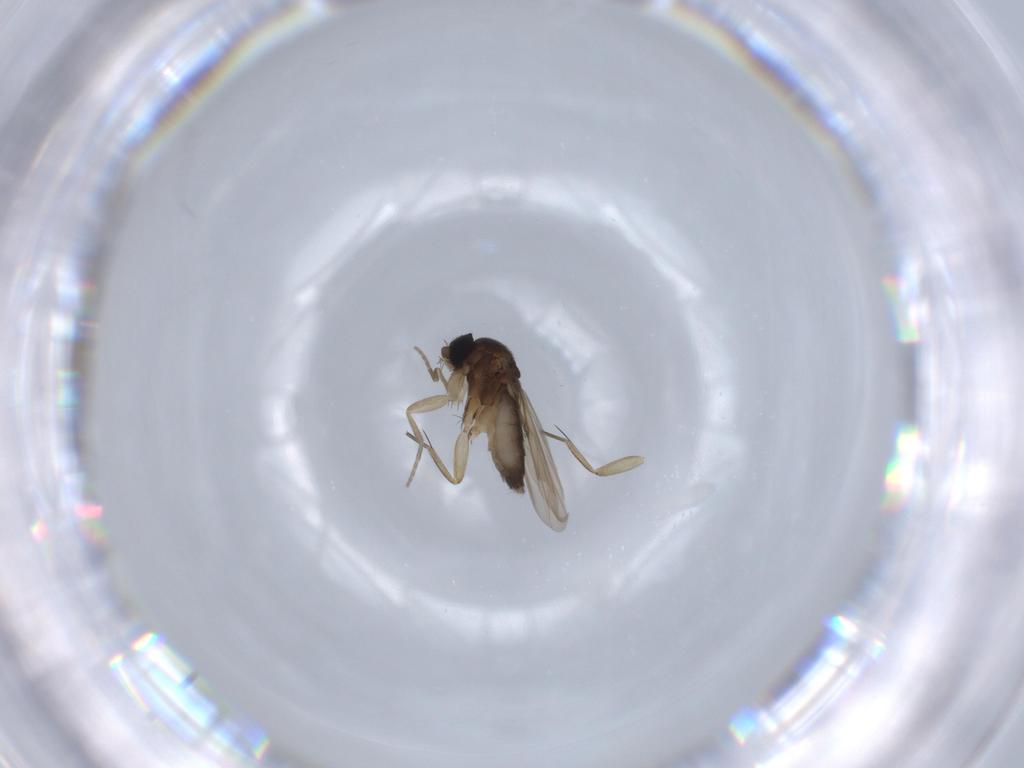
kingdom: Animalia
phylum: Arthropoda
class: Insecta
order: Diptera
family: Phoridae
